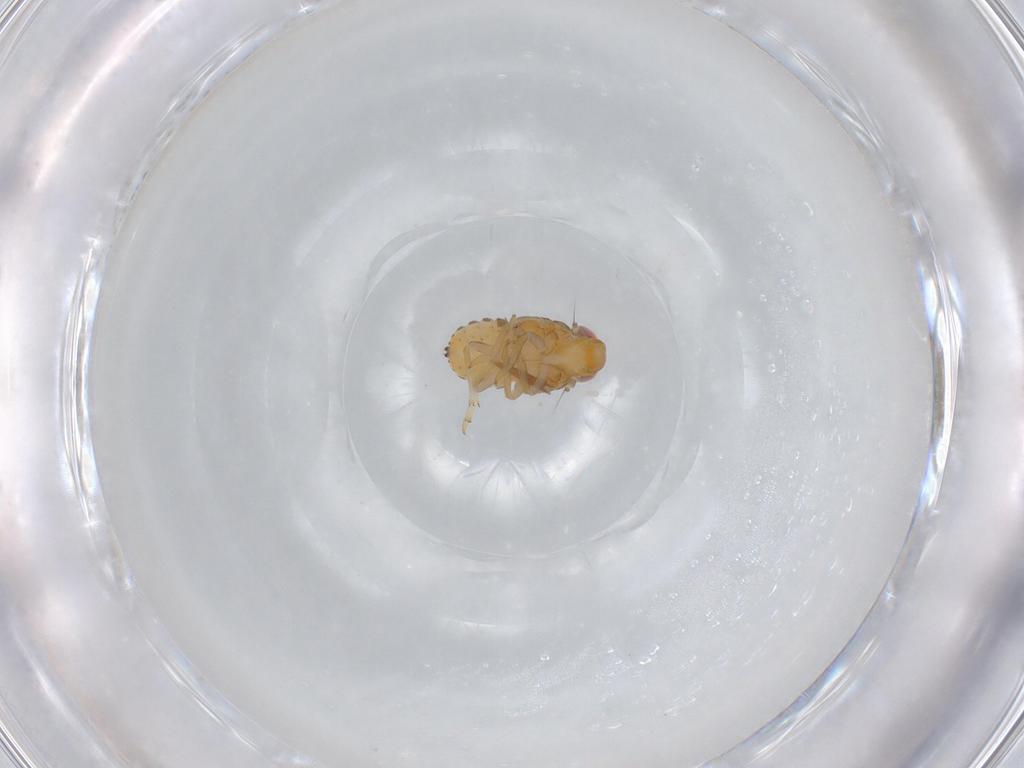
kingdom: Animalia
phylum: Arthropoda
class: Insecta
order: Hemiptera
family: Issidae
